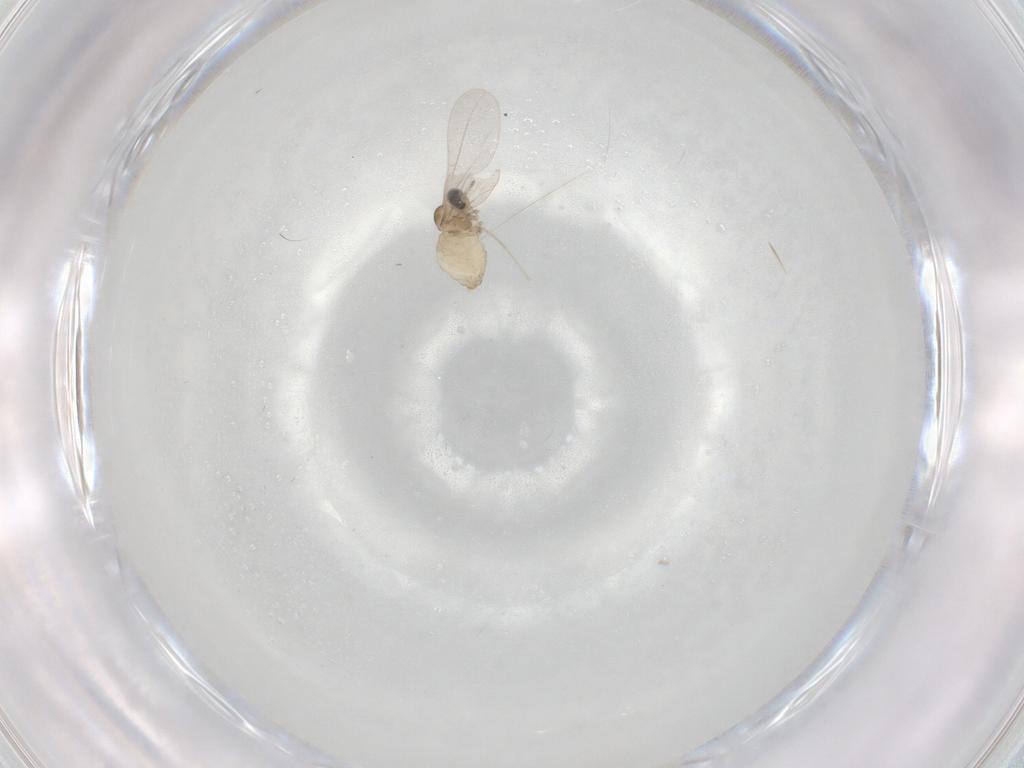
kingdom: Animalia
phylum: Arthropoda
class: Insecta
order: Diptera
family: Cecidomyiidae
